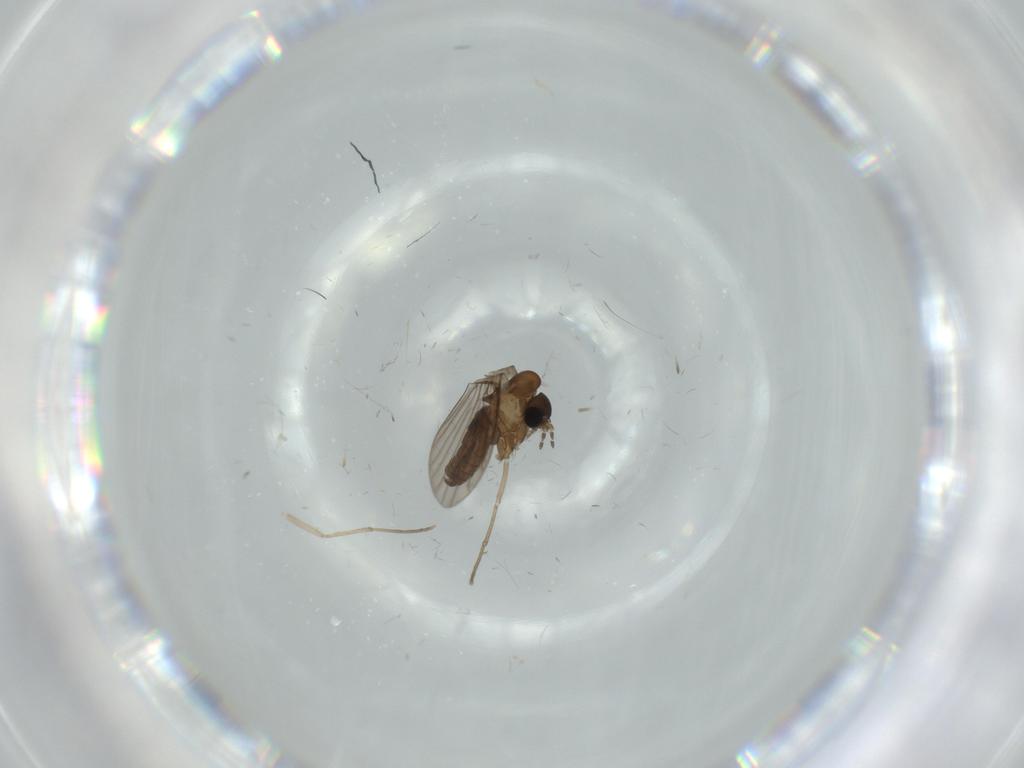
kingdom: Animalia
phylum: Arthropoda
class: Insecta
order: Diptera
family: Psychodidae
